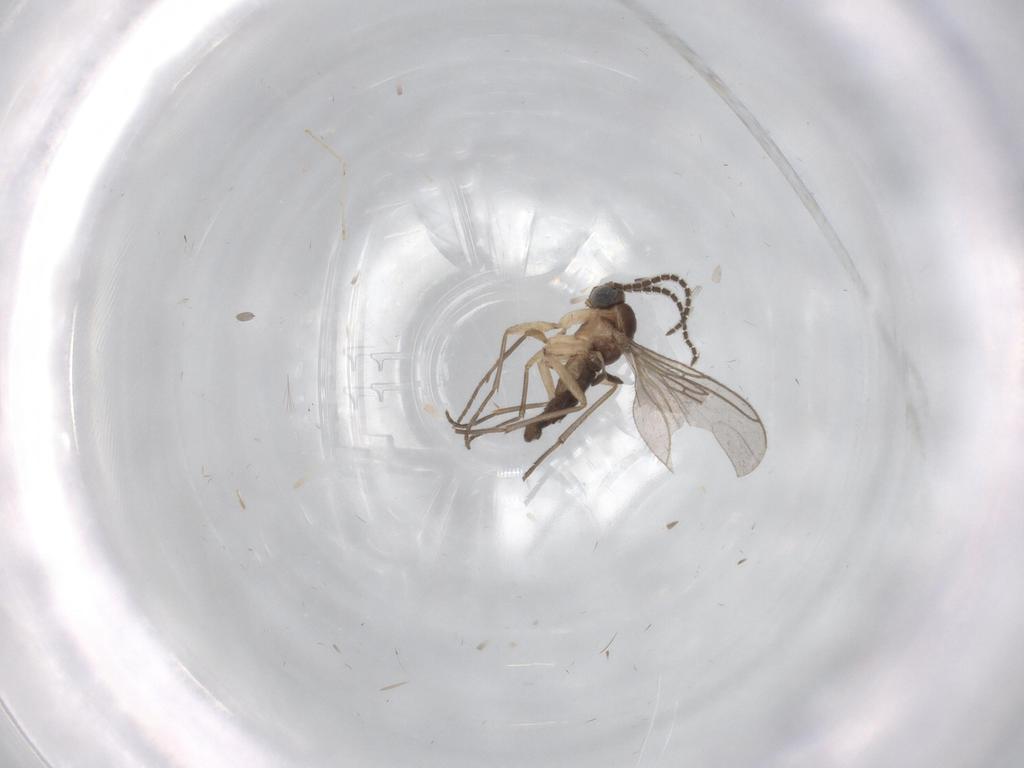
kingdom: Animalia
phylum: Arthropoda
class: Insecta
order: Diptera
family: Sciaridae
